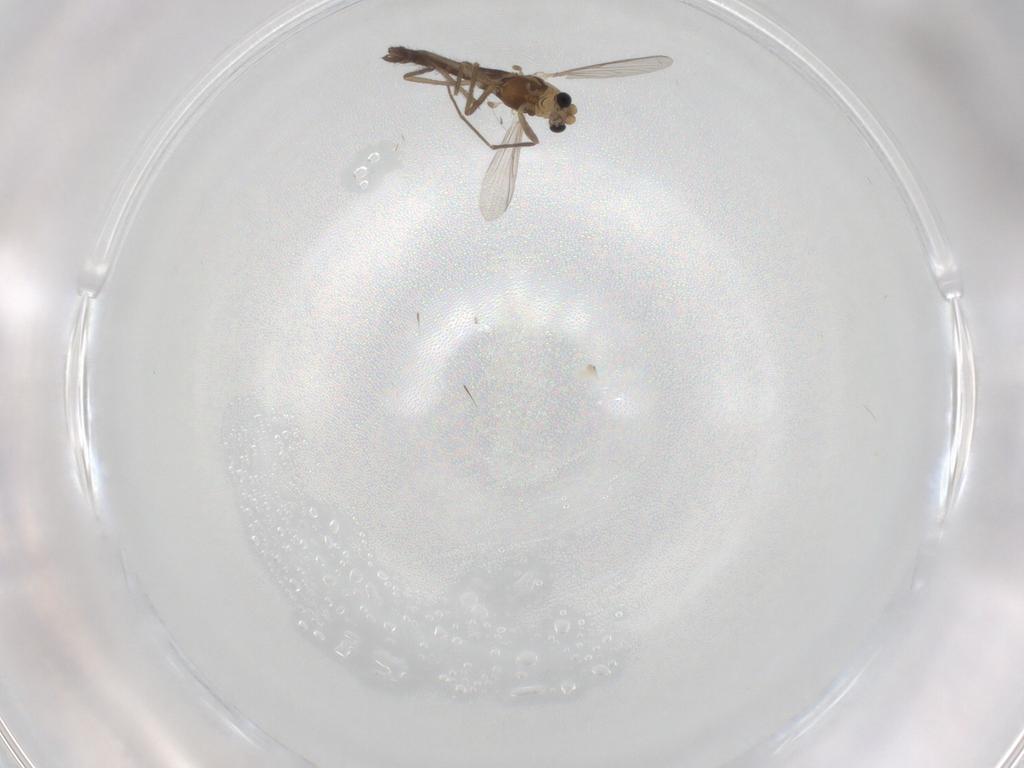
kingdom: Animalia
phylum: Arthropoda
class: Insecta
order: Diptera
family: Chironomidae
